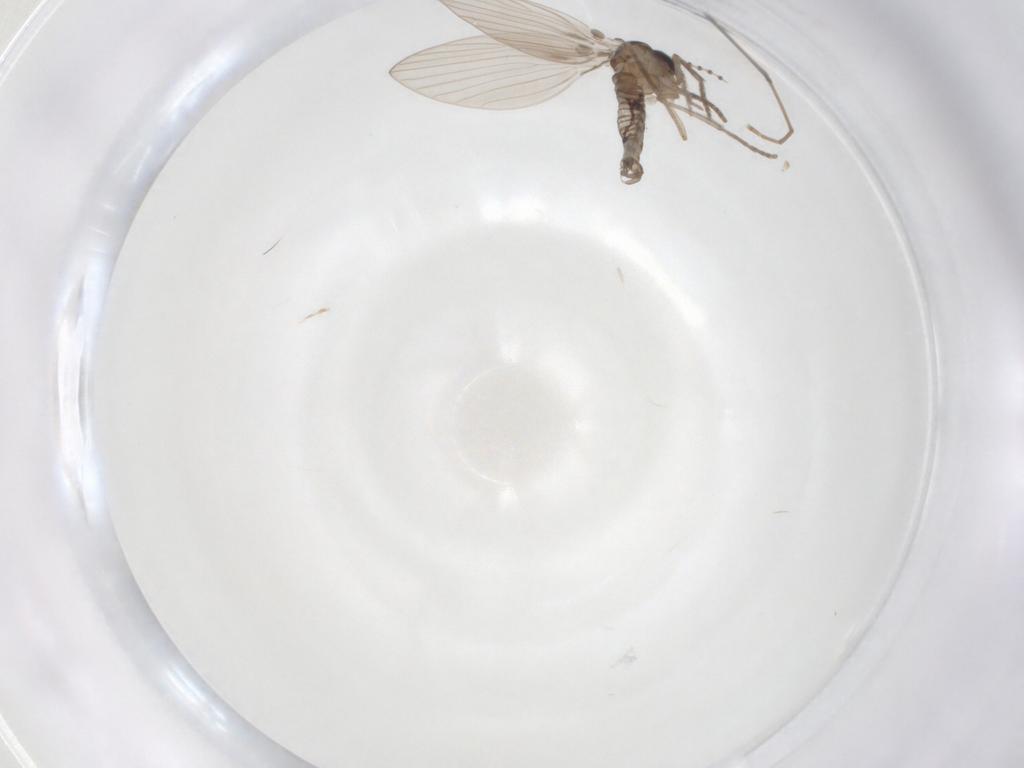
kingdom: Animalia
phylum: Arthropoda
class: Insecta
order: Diptera
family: Psychodidae
